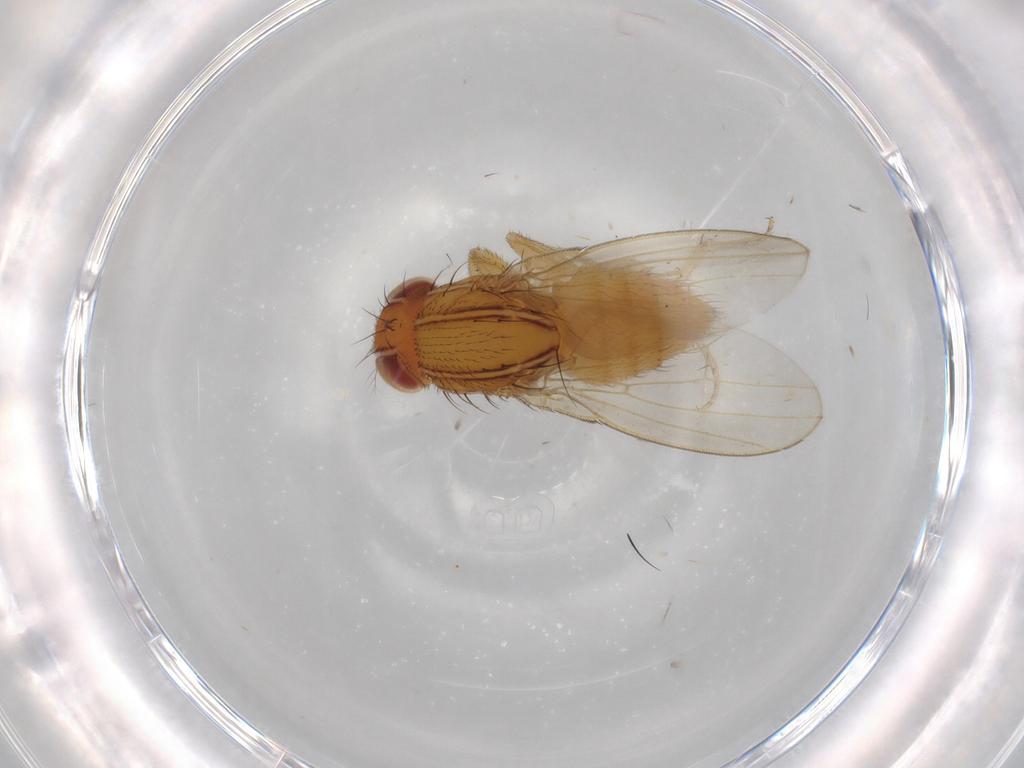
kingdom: Animalia
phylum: Arthropoda
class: Insecta
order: Diptera
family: Drosophilidae
